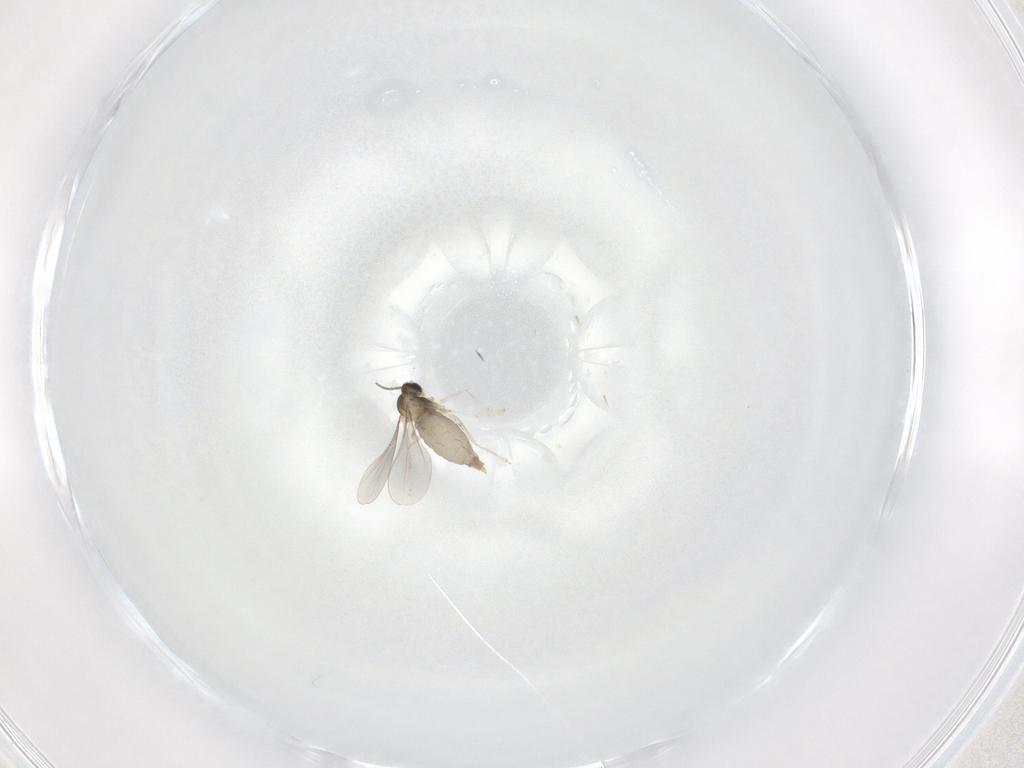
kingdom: Animalia
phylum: Arthropoda
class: Insecta
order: Diptera
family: Cecidomyiidae
